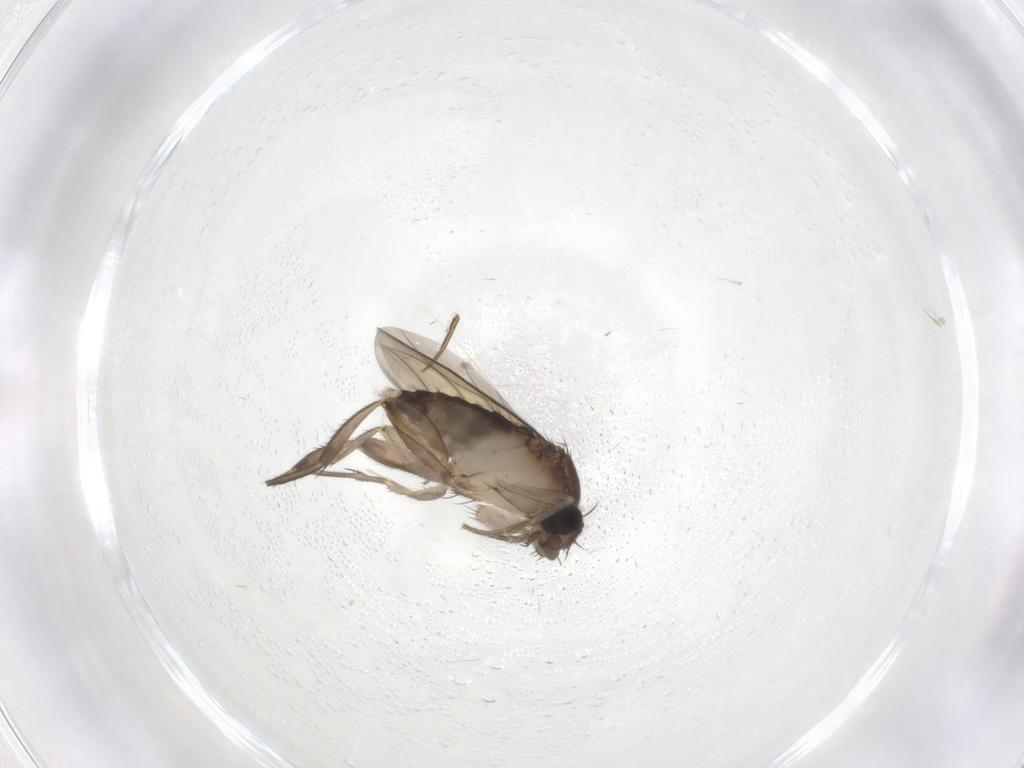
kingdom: Animalia
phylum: Arthropoda
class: Insecta
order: Diptera
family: Phoridae
